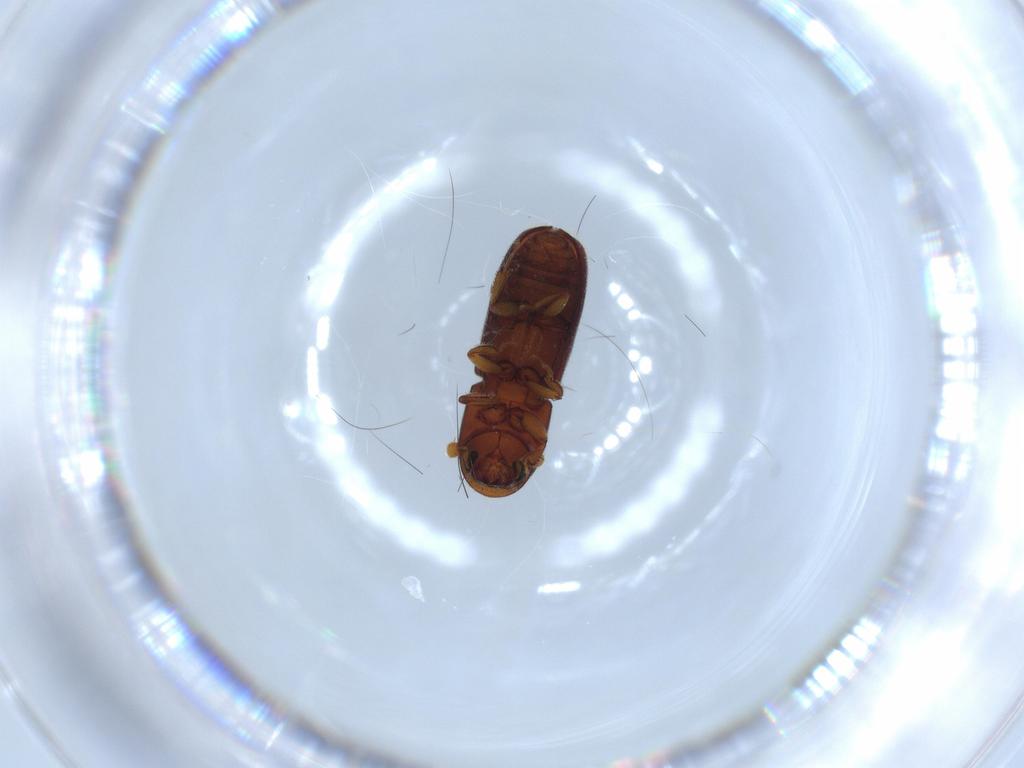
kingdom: Animalia
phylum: Arthropoda
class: Insecta
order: Coleoptera
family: Curculionidae
